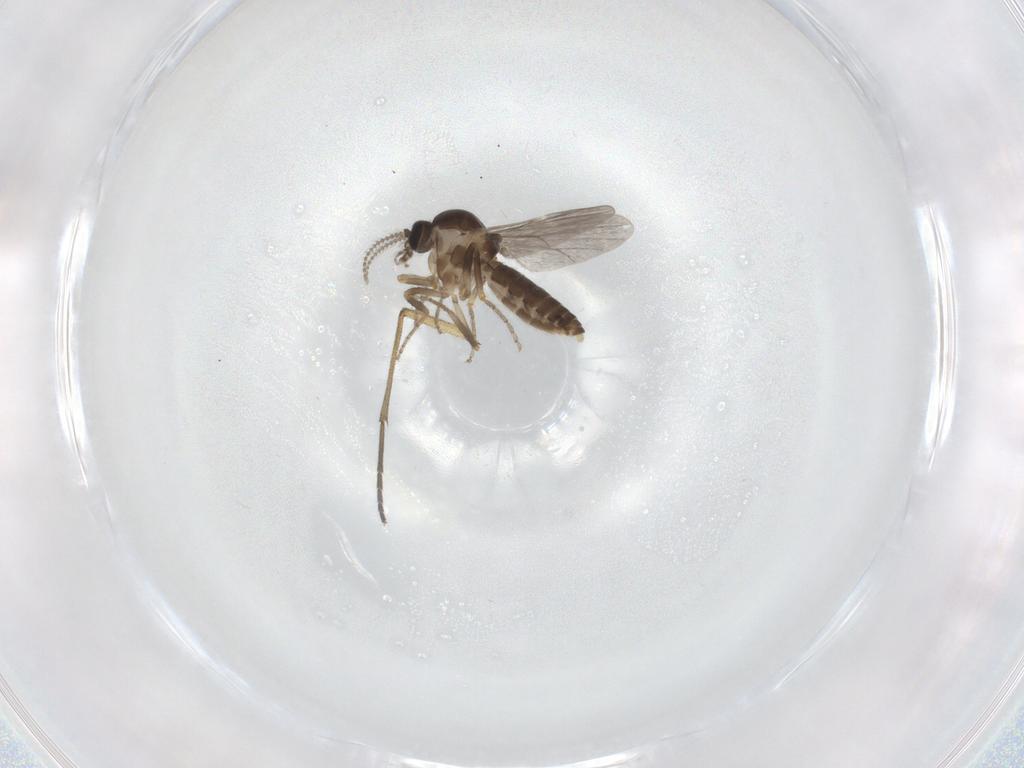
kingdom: Animalia
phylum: Arthropoda
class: Insecta
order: Diptera
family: Ceratopogonidae
